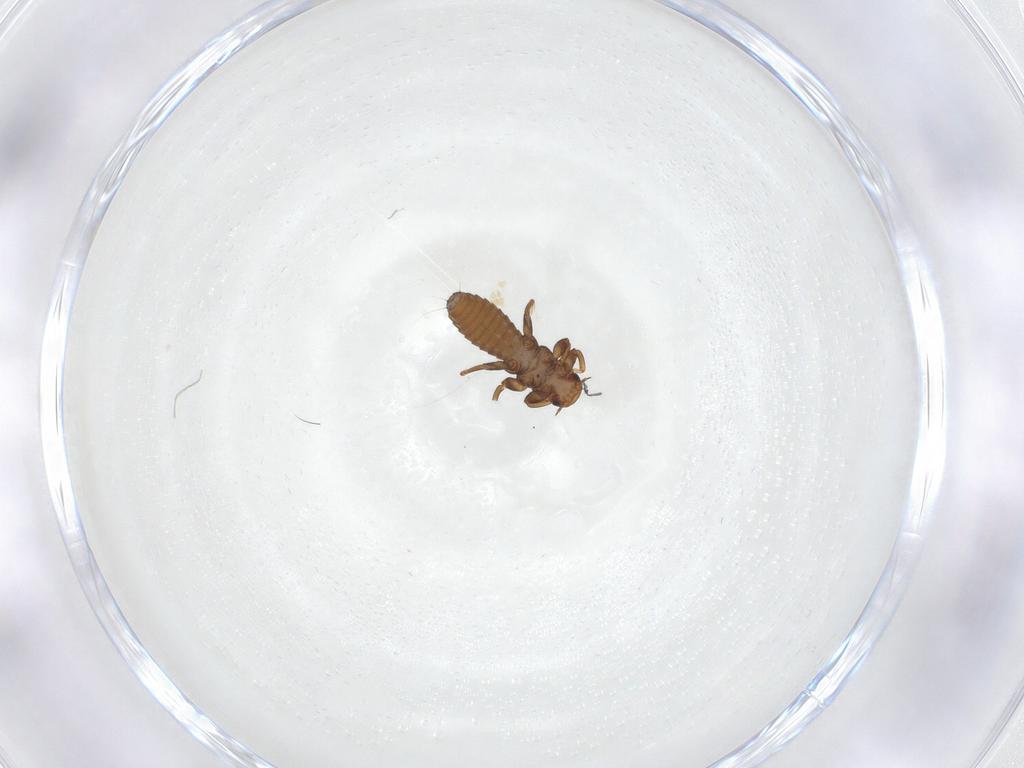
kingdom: Animalia
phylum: Arthropoda
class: Insecta
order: Coleoptera
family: Meloidae
